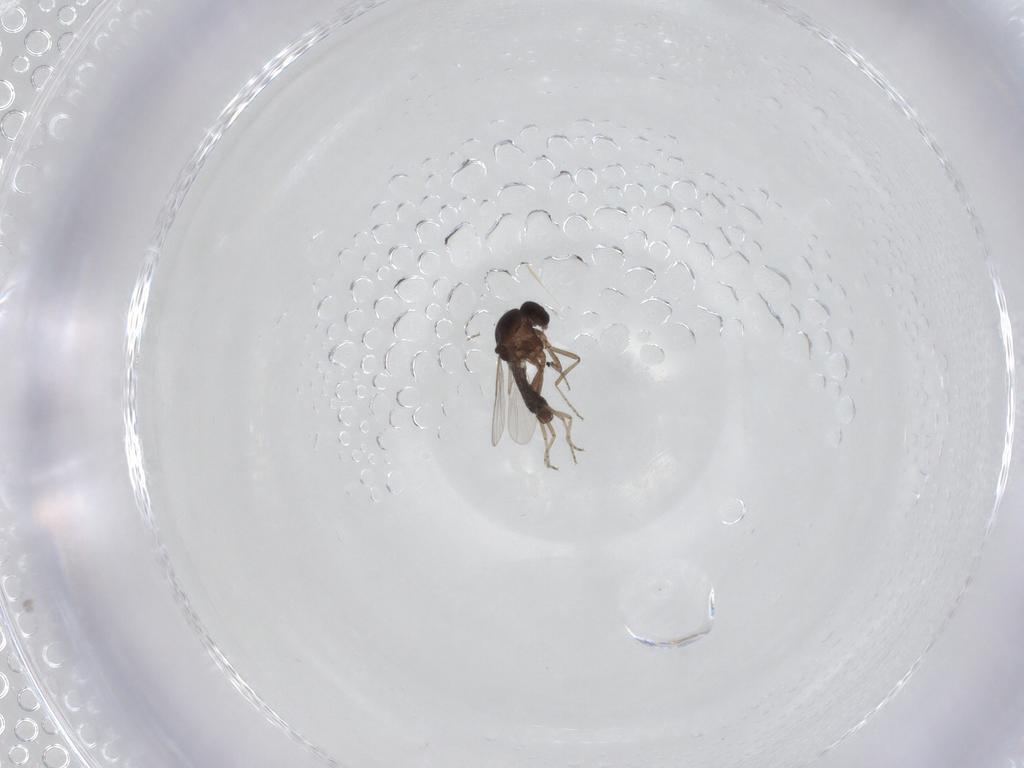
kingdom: Animalia
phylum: Arthropoda
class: Insecta
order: Diptera
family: Ceratopogonidae
